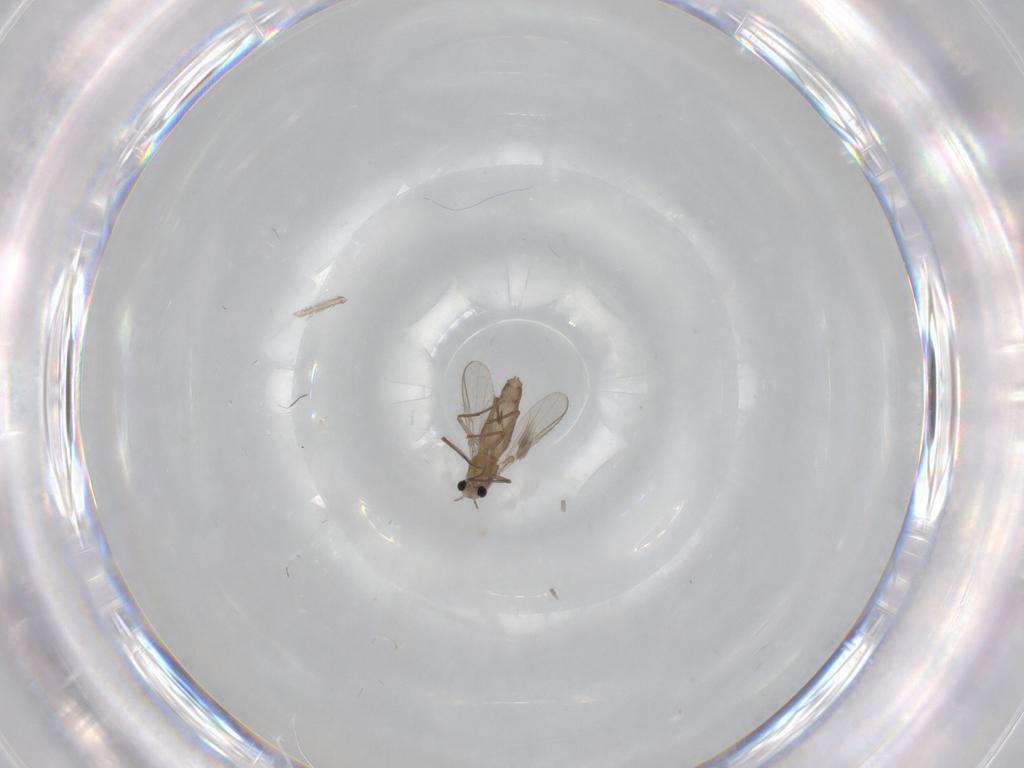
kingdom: Animalia
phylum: Arthropoda
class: Insecta
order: Diptera
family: Chironomidae
